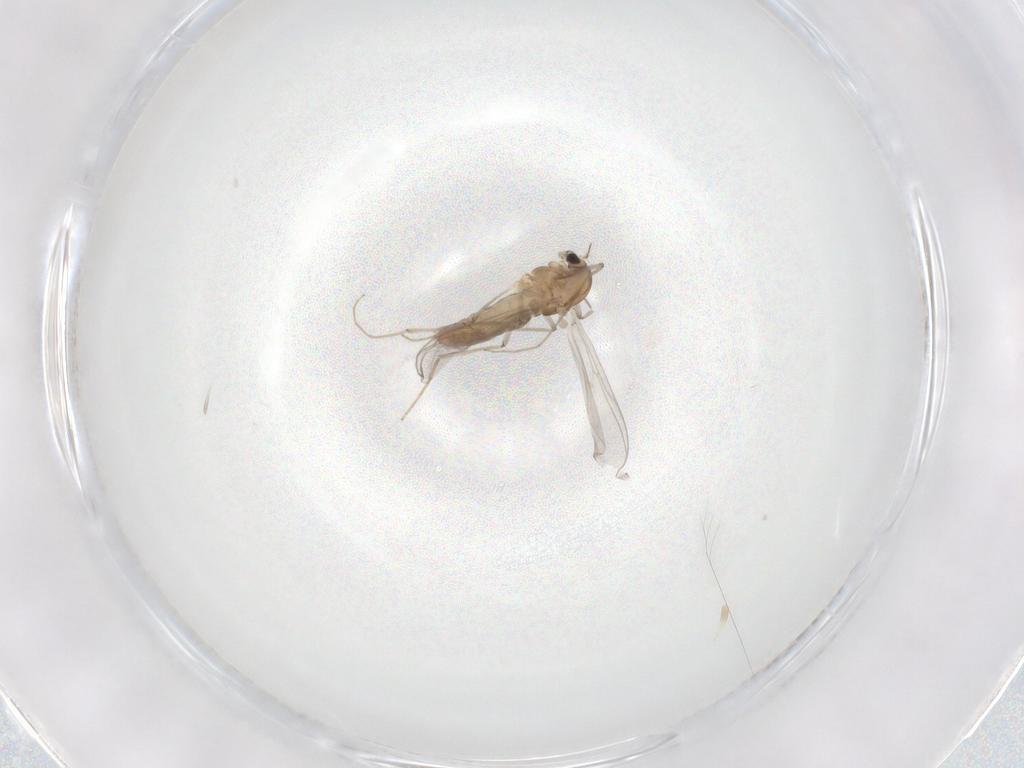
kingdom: Animalia
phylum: Arthropoda
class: Insecta
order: Diptera
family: Chironomidae
